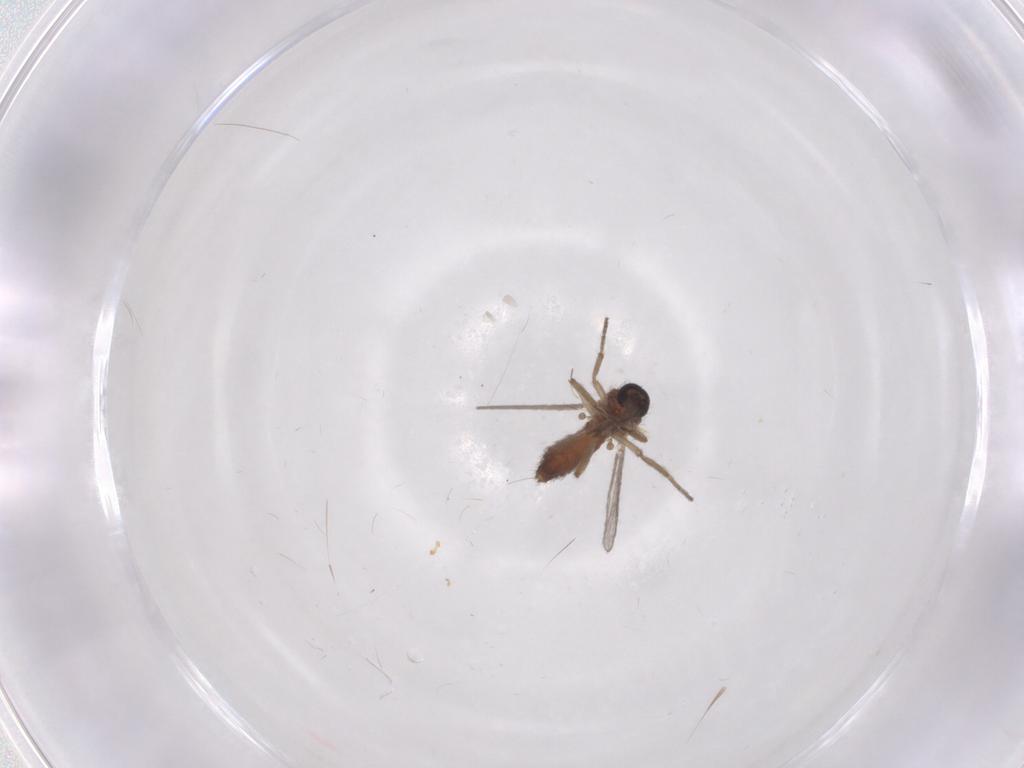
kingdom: Animalia
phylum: Arthropoda
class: Insecta
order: Diptera
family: Ceratopogonidae
